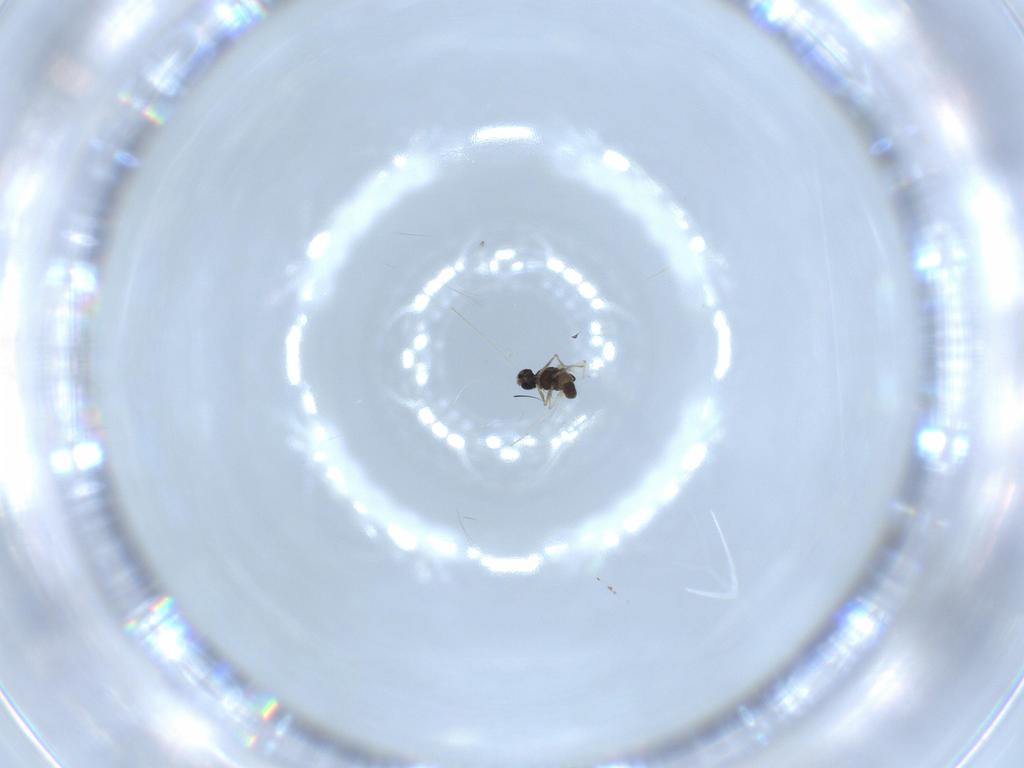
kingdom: Animalia
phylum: Arthropoda
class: Insecta
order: Diptera
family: Chironomidae
